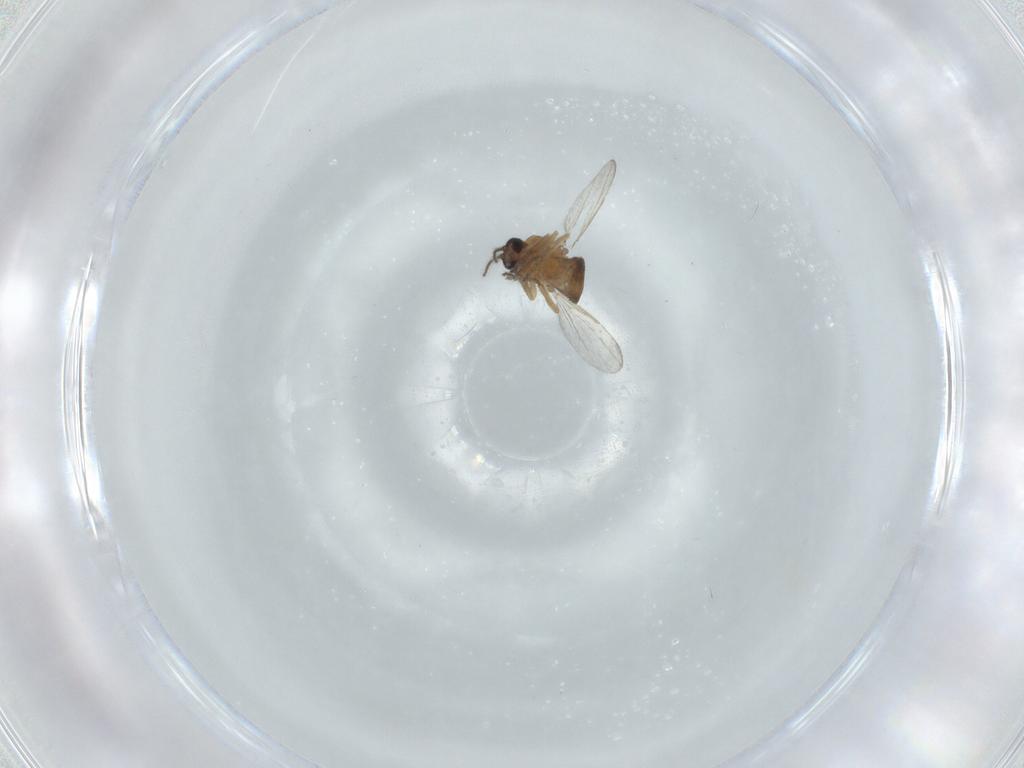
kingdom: Animalia
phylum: Arthropoda
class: Insecta
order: Diptera
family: Ceratopogonidae
